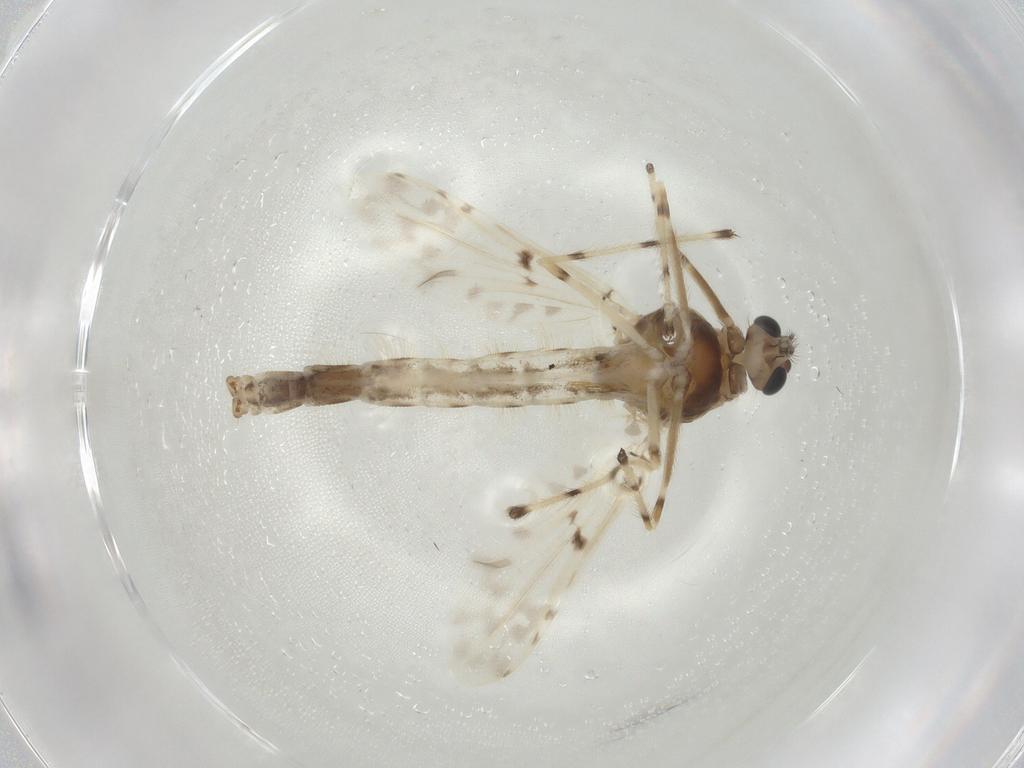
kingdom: Animalia
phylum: Arthropoda
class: Insecta
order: Diptera
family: Chironomidae
